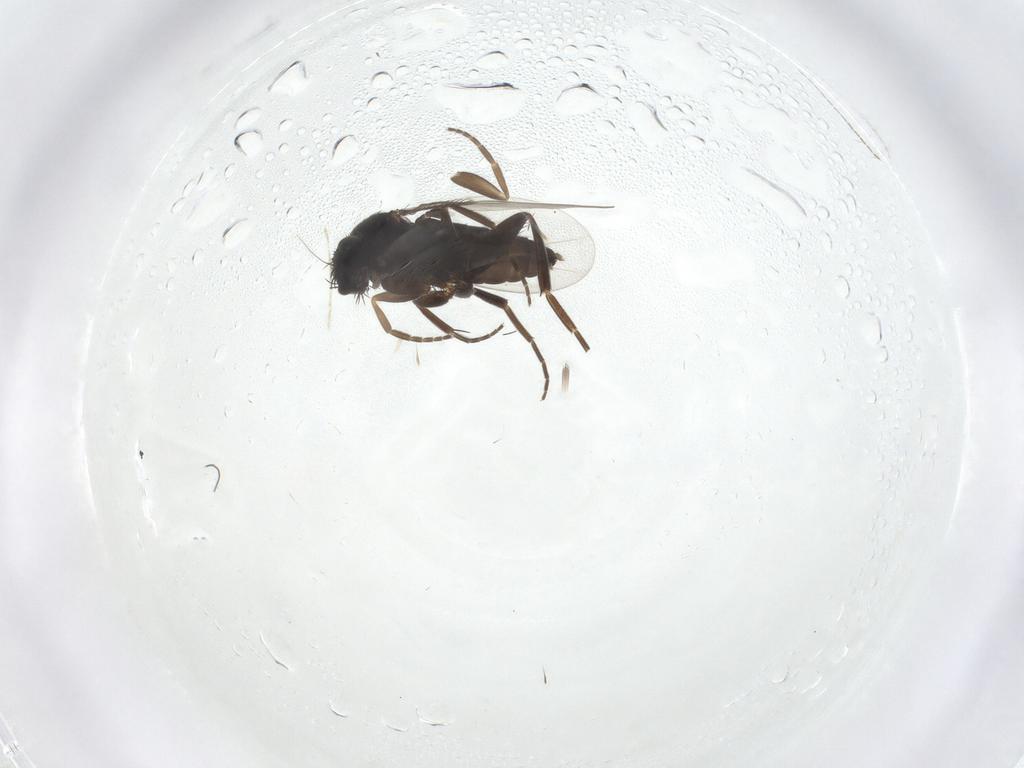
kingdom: Animalia
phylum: Arthropoda
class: Insecta
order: Diptera
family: Phoridae
